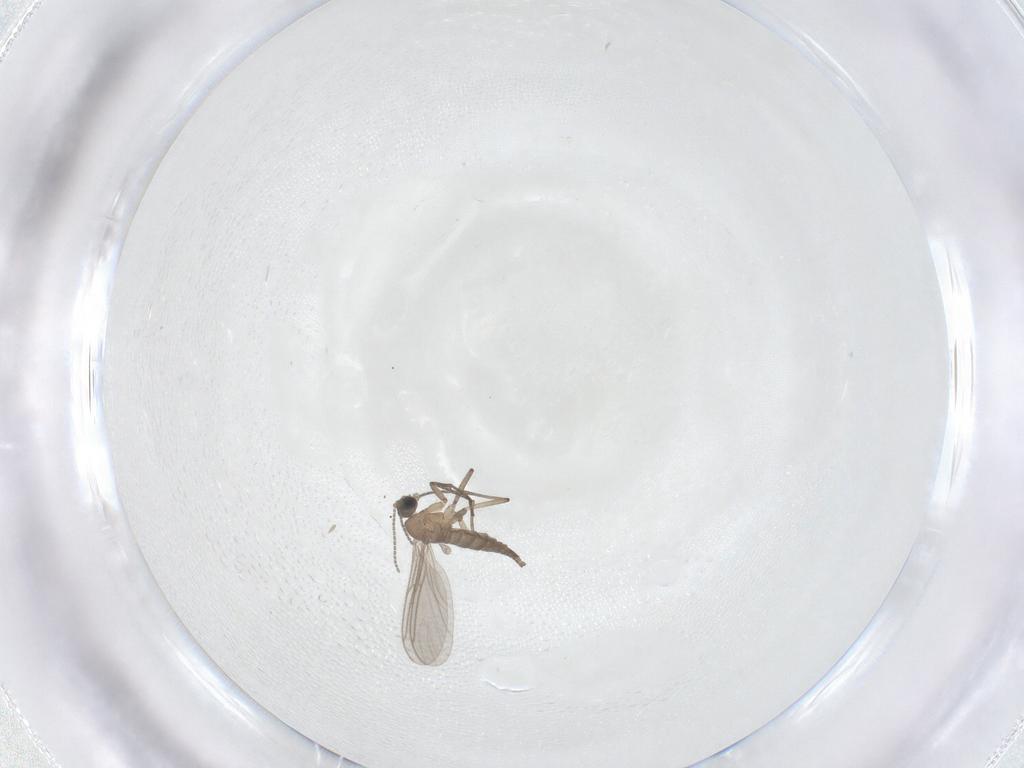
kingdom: Animalia
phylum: Arthropoda
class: Insecta
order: Diptera
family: Sciaridae
